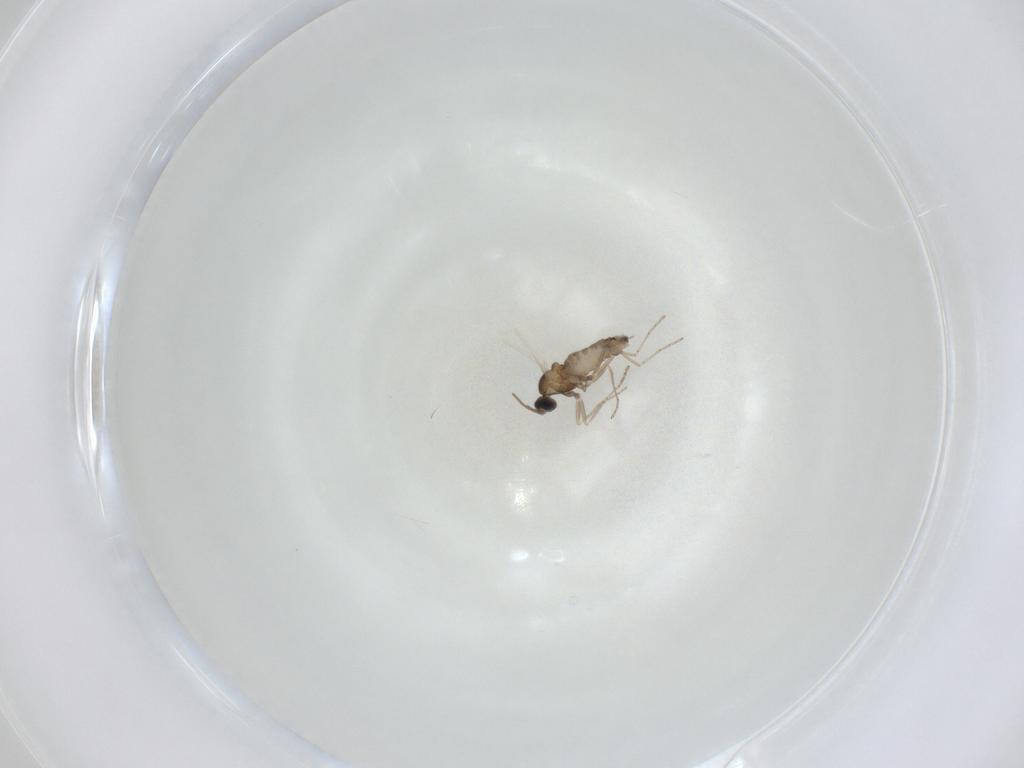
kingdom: Animalia
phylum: Arthropoda
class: Insecta
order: Diptera
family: Cecidomyiidae
